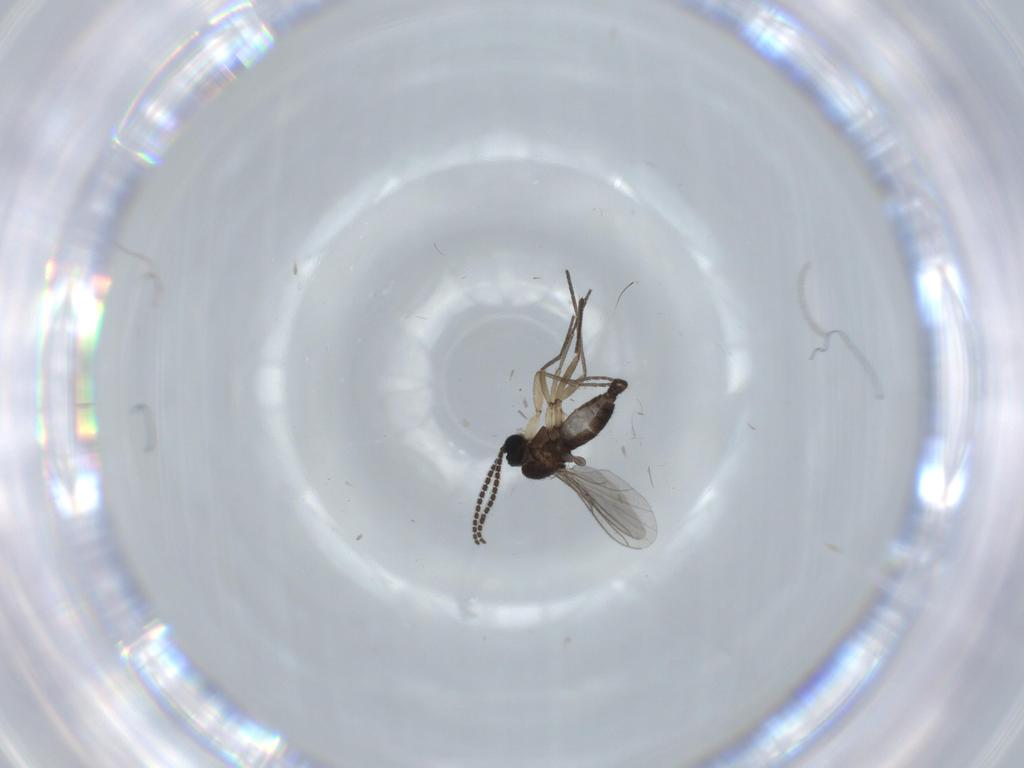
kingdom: Animalia
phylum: Arthropoda
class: Insecta
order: Diptera
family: Sciaridae
